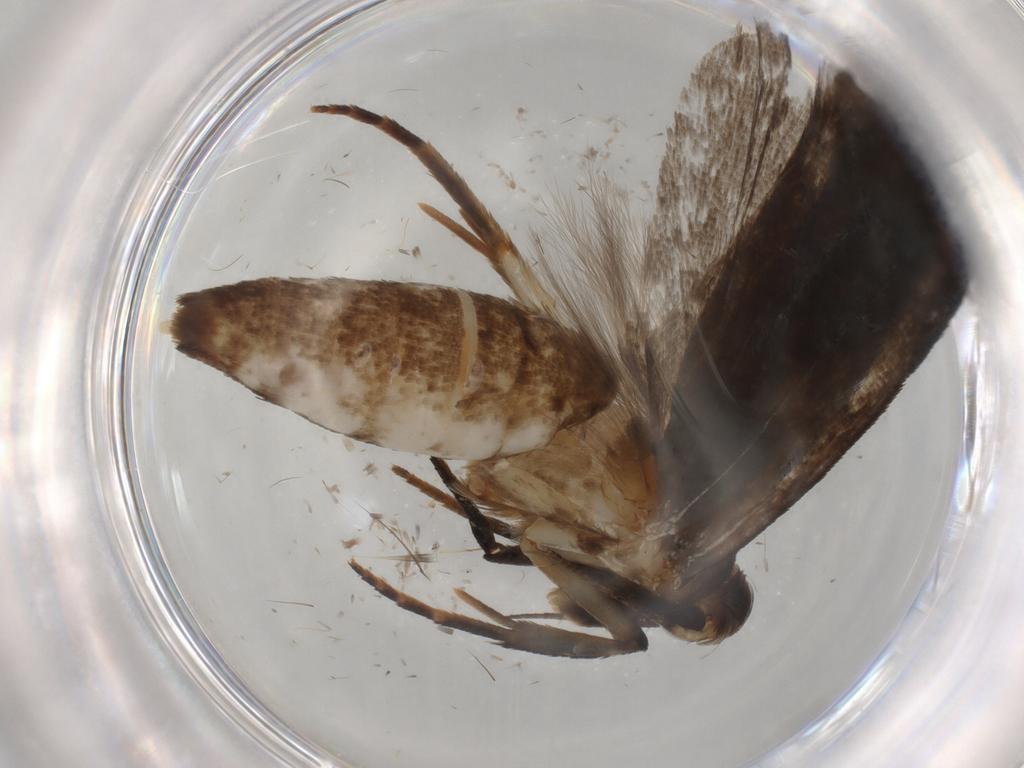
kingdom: Animalia
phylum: Arthropoda
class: Insecta
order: Lepidoptera
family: Gelechiidae
